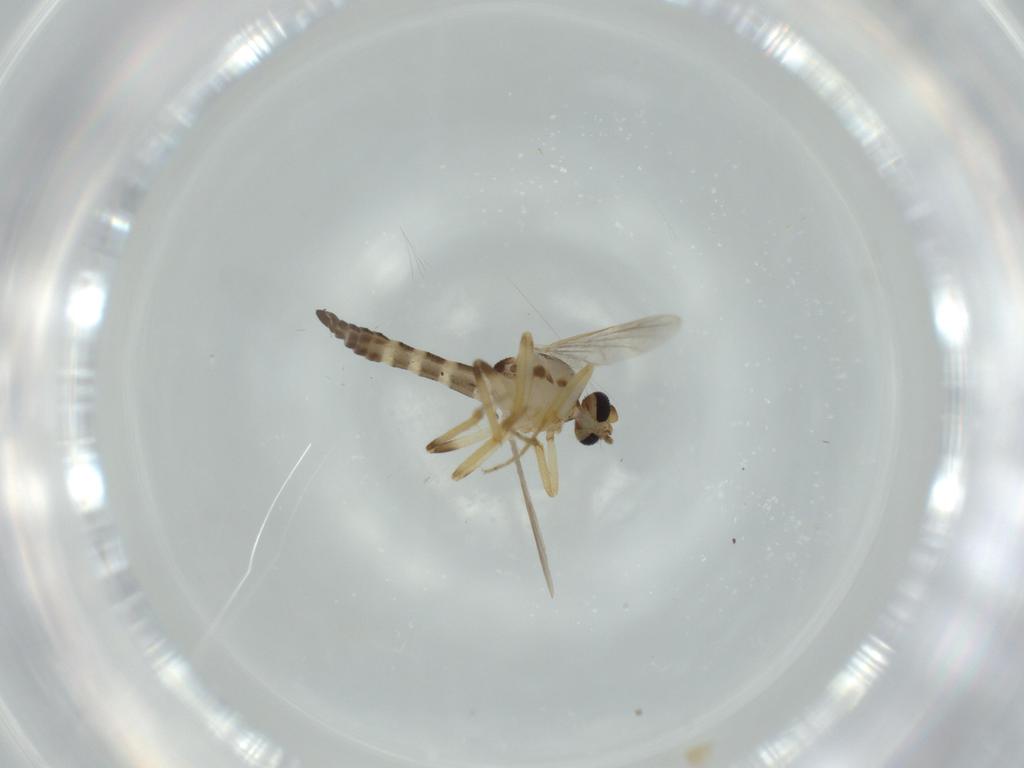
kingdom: Animalia
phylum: Arthropoda
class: Insecta
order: Diptera
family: Ceratopogonidae
